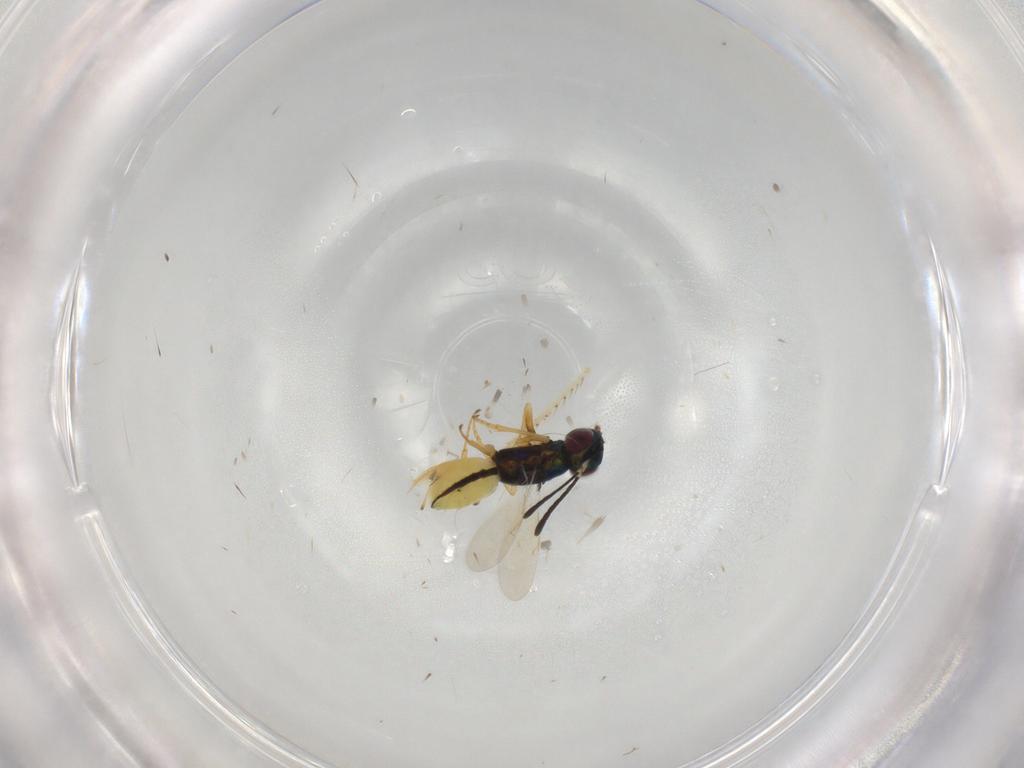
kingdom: Animalia
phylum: Arthropoda
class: Insecta
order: Hymenoptera
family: Encyrtidae
